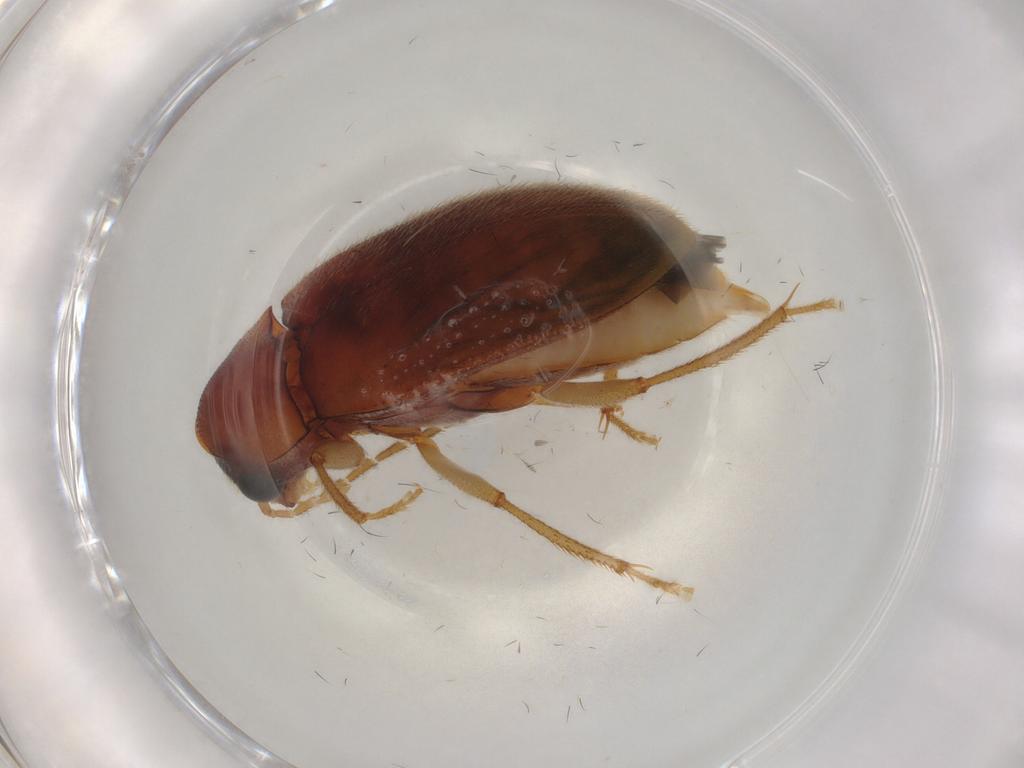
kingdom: Animalia
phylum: Arthropoda
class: Insecta
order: Coleoptera
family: Ptilodactylidae
